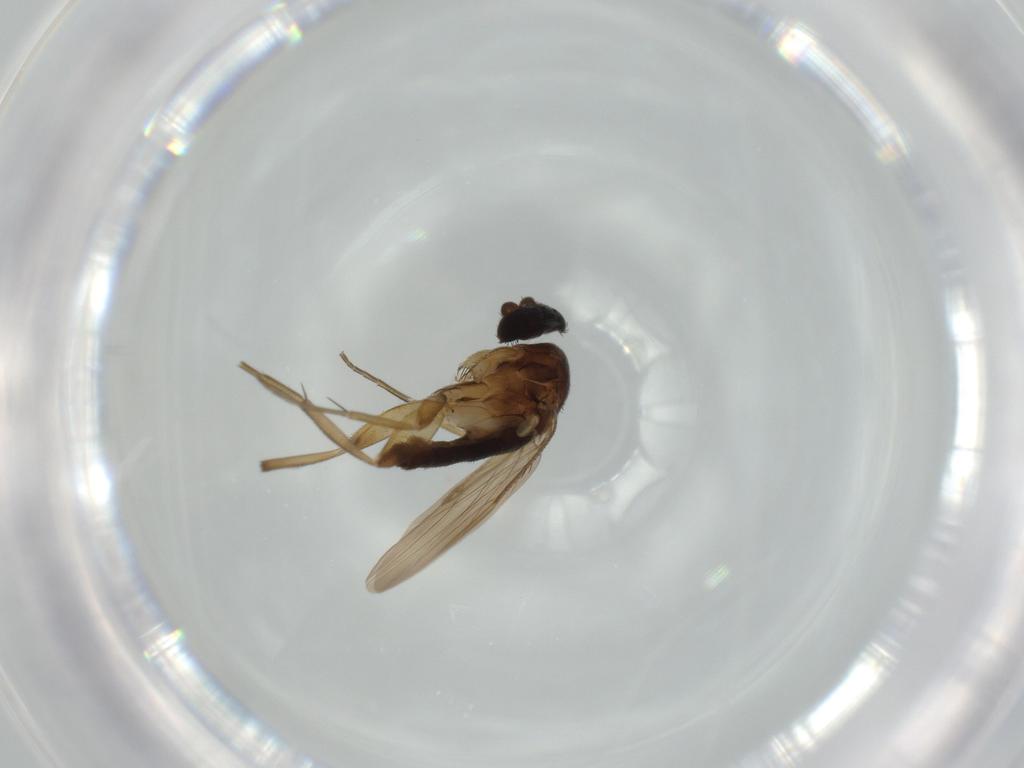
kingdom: Animalia
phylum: Arthropoda
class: Insecta
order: Diptera
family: Phoridae
